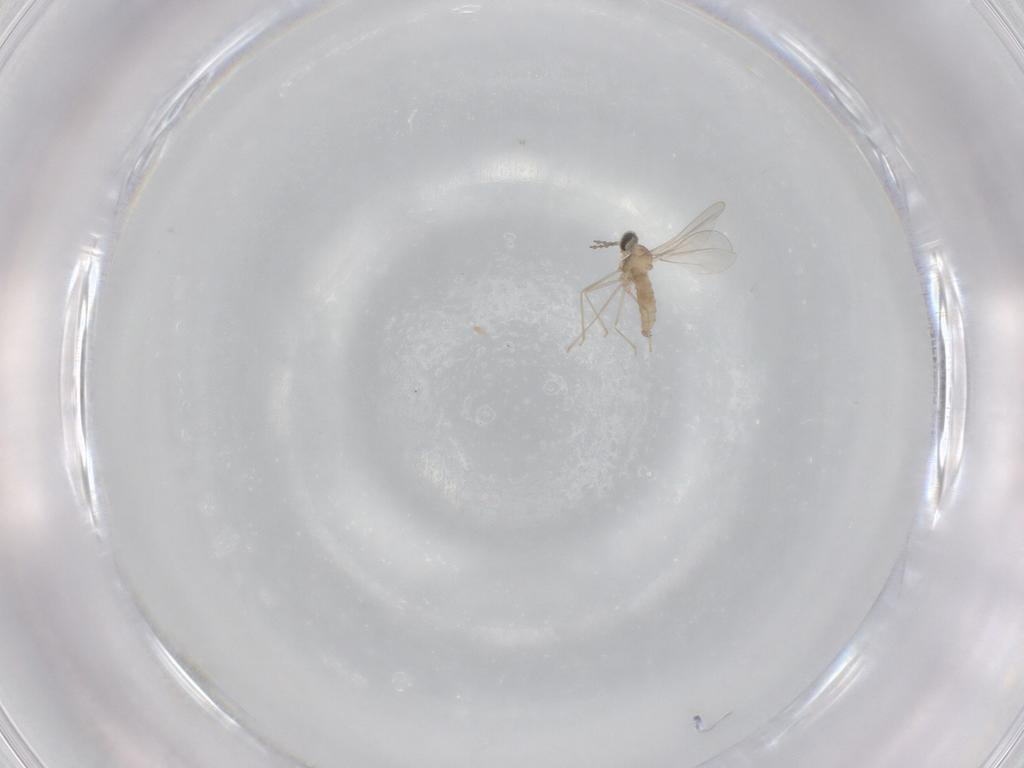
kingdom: Animalia
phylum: Arthropoda
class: Insecta
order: Diptera
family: Cecidomyiidae
